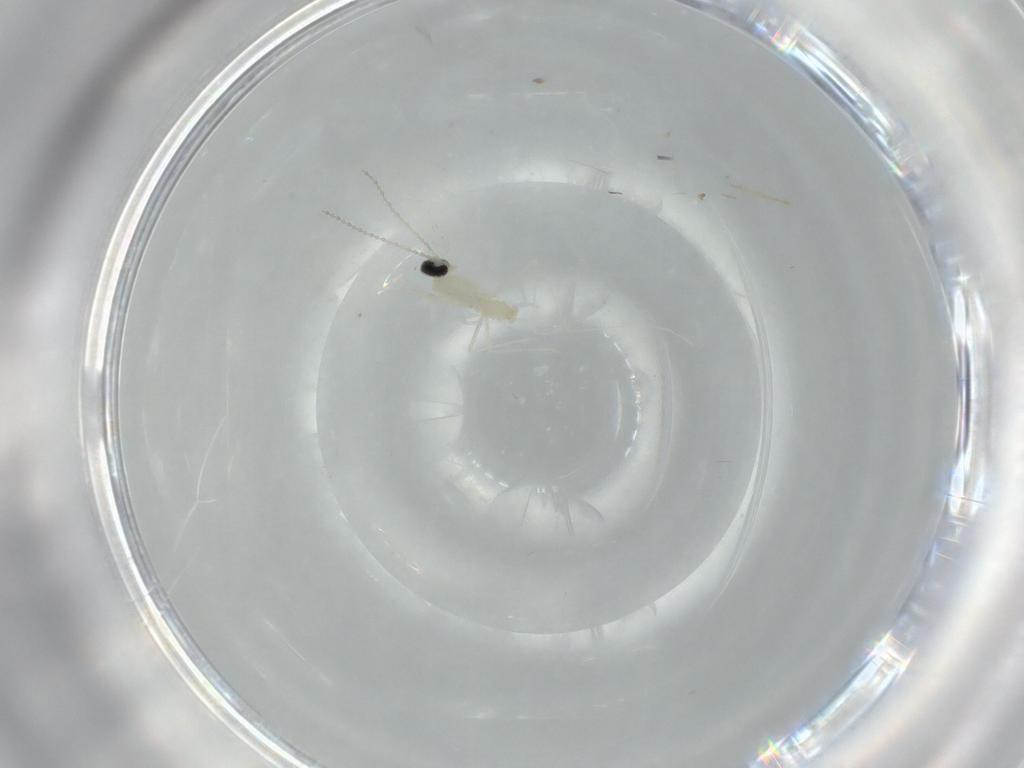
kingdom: Animalia
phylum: Arthropoda
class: Insecta
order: Diptera
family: Cecidomyiidae
